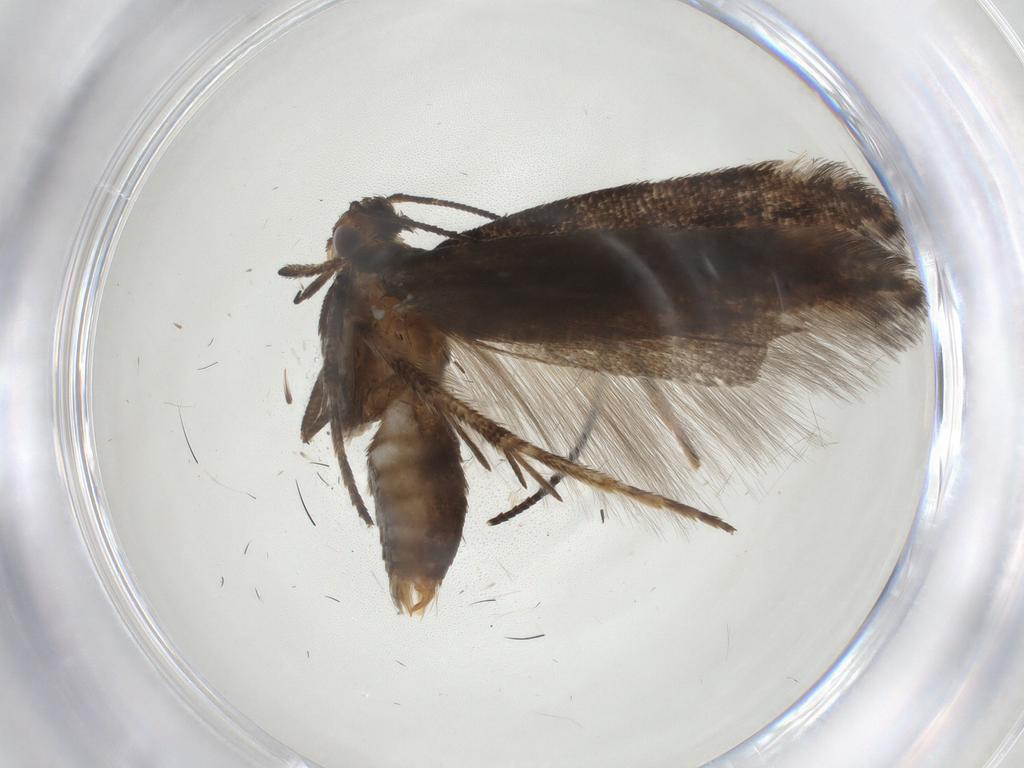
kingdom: Animalia
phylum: Arthropoda
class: Insecta
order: Lepidoptera
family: Gelechiidae
